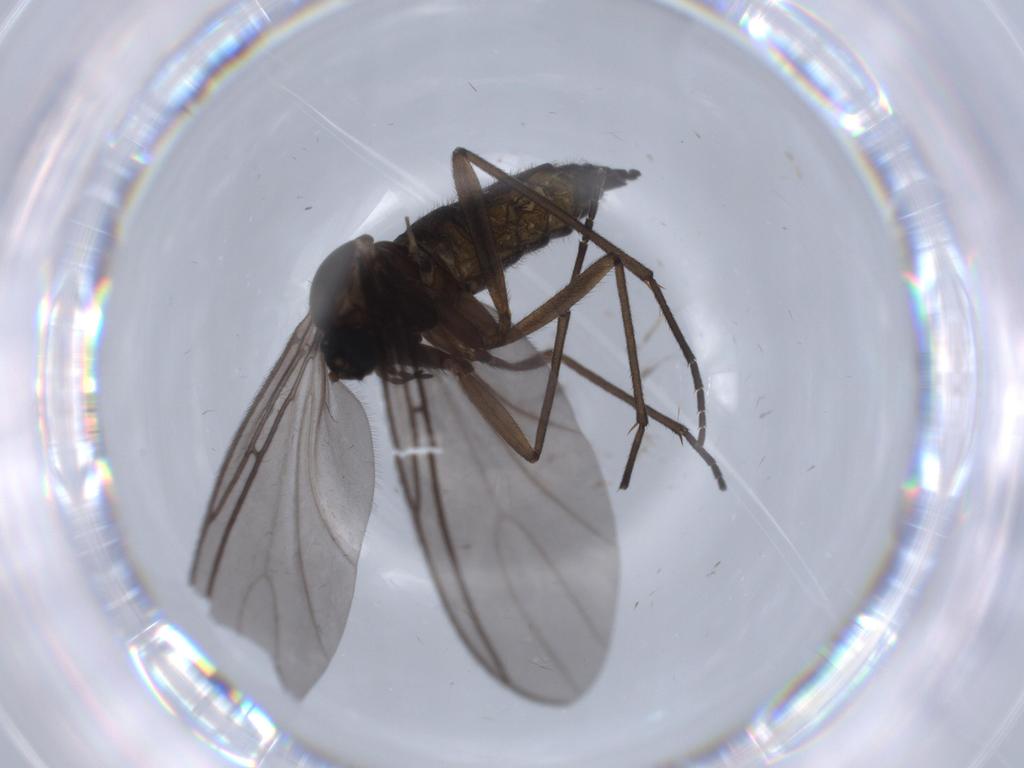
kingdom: Animalia
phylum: Arthropoda
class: Insecta
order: Diptera
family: Sciaridae
